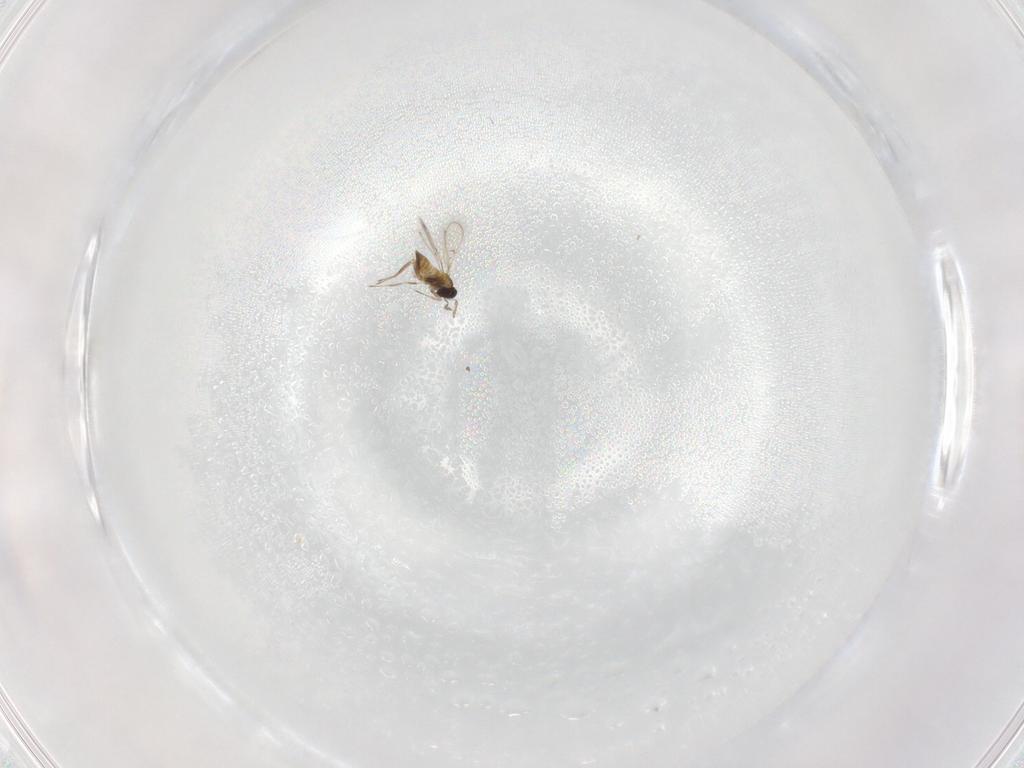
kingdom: Animalia
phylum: Arthropoda
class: Insecta
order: Hymenoptera
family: Trichogrammatidae
